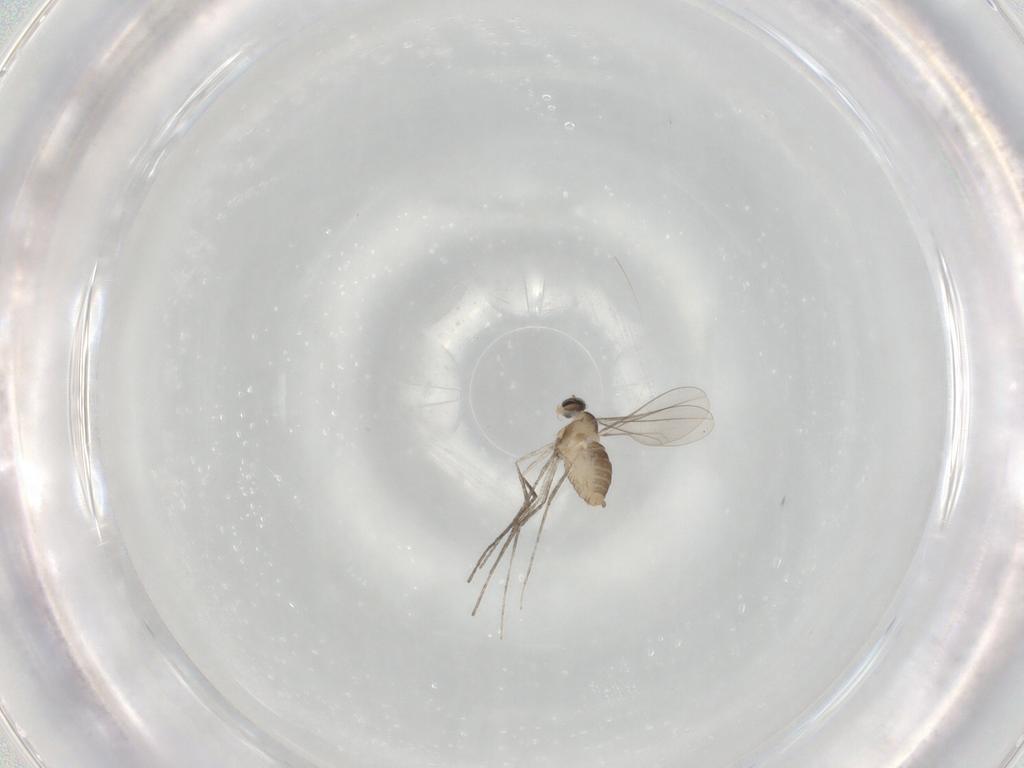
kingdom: Animalia
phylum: Arthropoda
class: Insecta
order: Diptera
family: Cecidomyiidae
